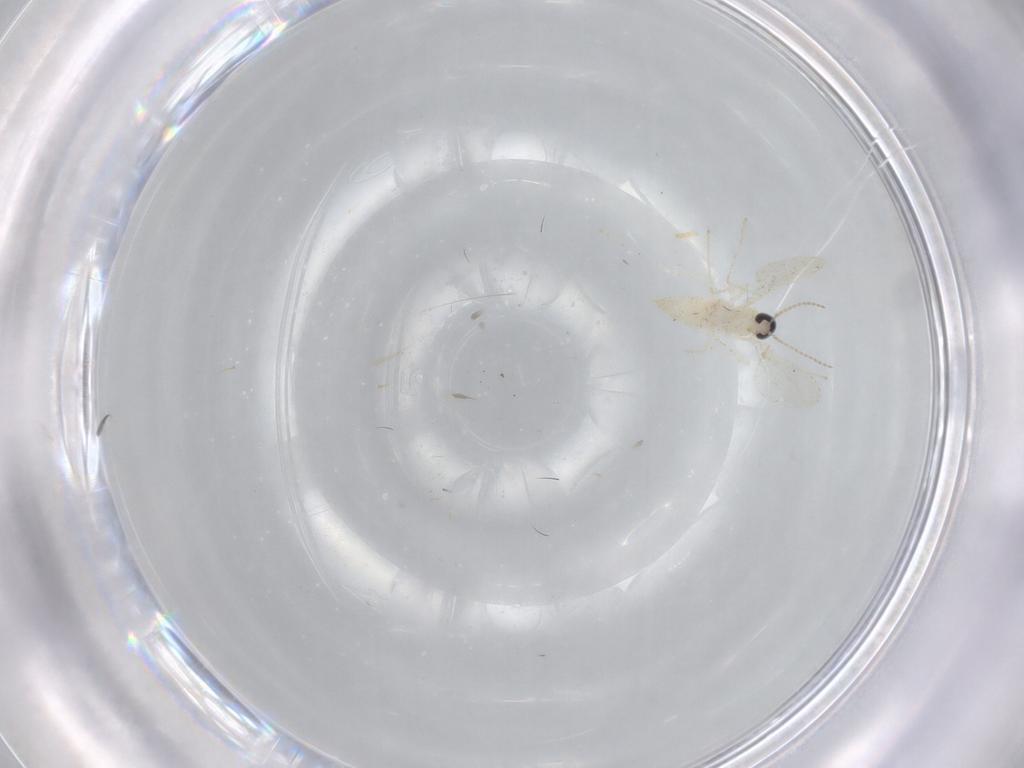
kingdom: Animalia
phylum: Arthropoda
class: Insecta
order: Diptera
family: Cecidomyiidae
